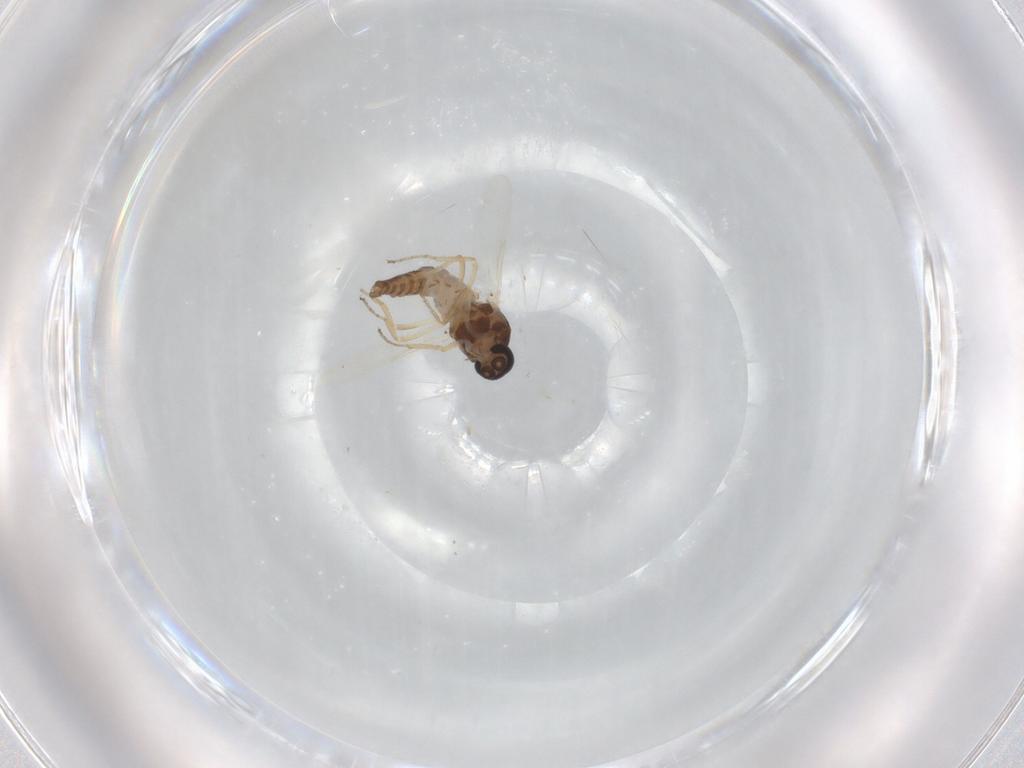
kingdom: Animalia
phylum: Arthropoda
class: Insecta
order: Diptera
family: Ceratopogonidae
